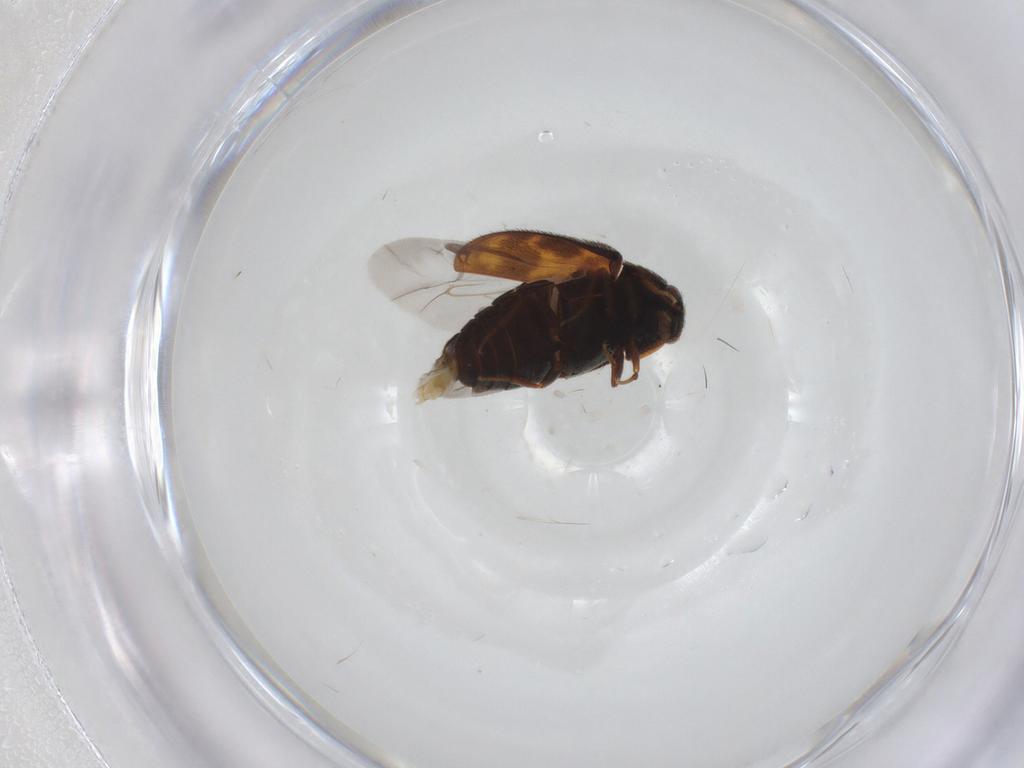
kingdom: Animalia
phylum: Arthropoda
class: Insecta
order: Coleoptera
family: Dermestidae
